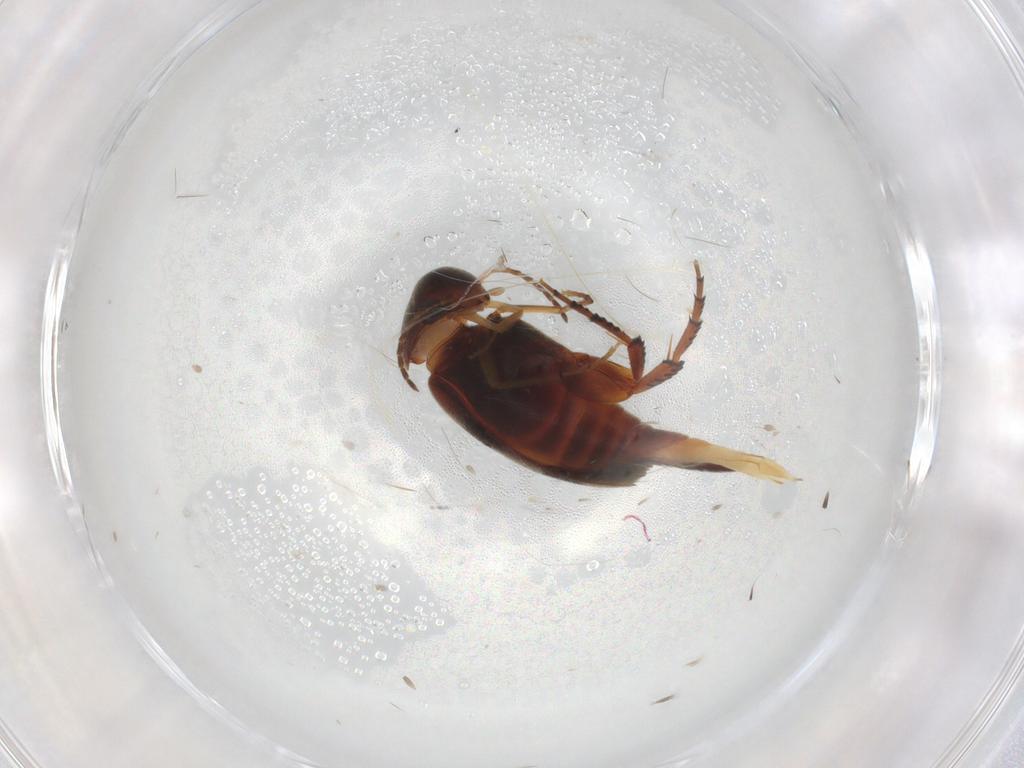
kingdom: Animalia
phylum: Arthropoda
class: Insecta
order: Coleoptera
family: Mordellidae
